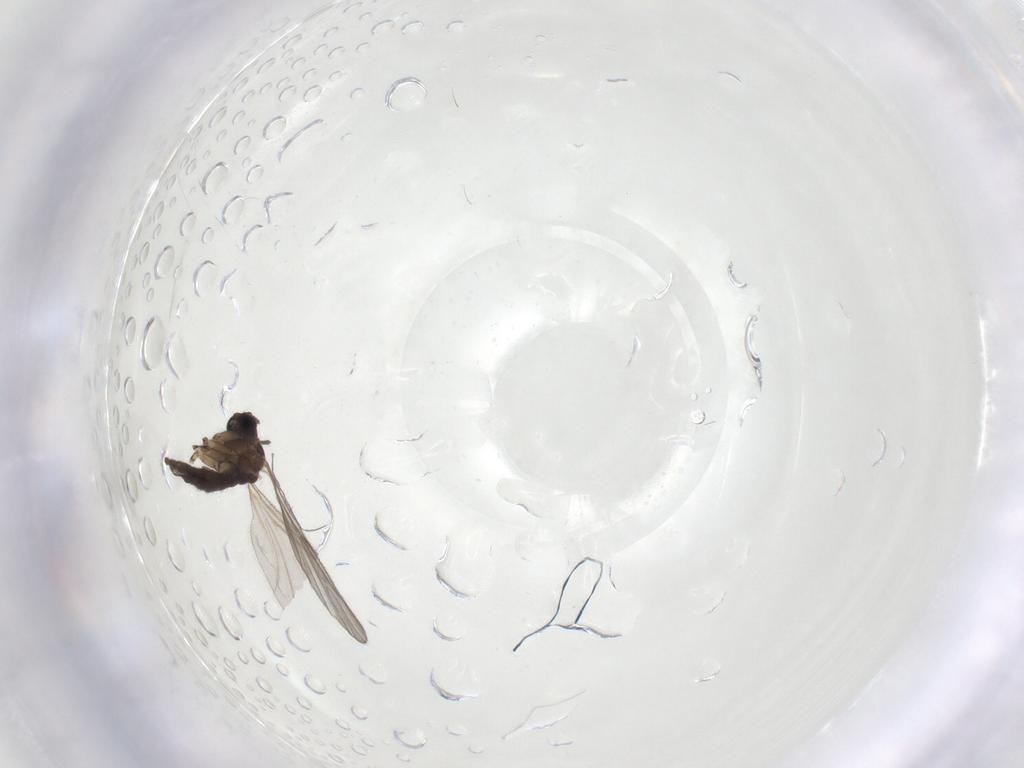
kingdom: Animalia
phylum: Arthropoda
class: Insecta
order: Diptera
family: Sciaridae
